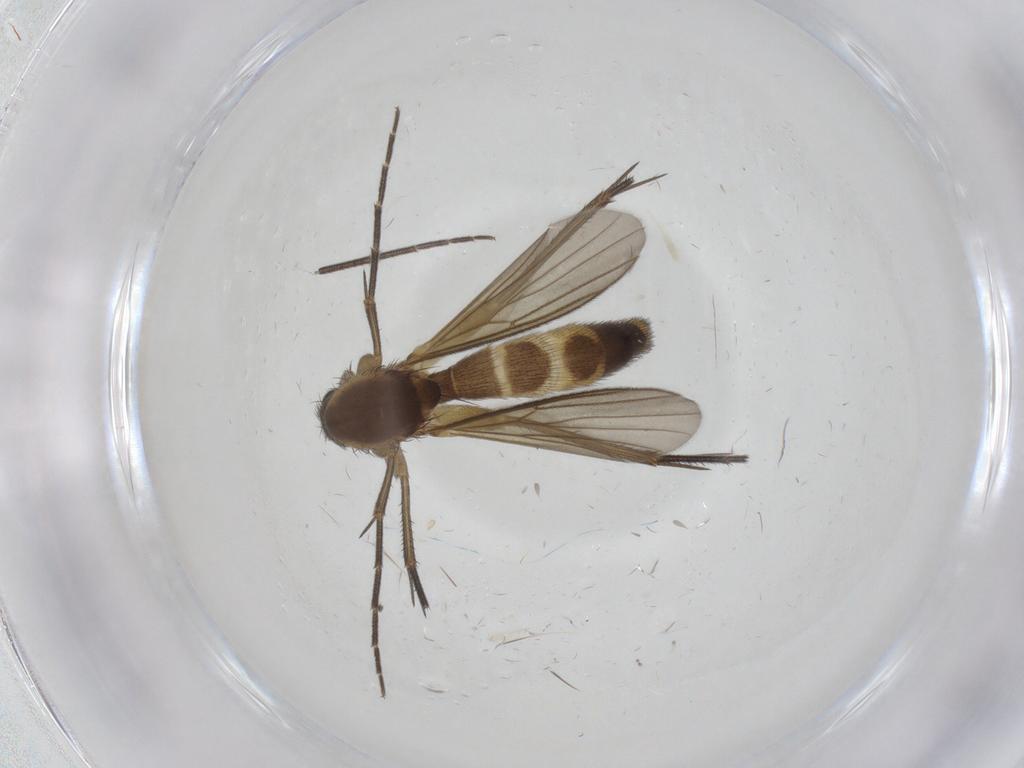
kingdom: Animalia
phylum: Arthropoda
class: Insecta
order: Diptera
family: Mycetophilidae
